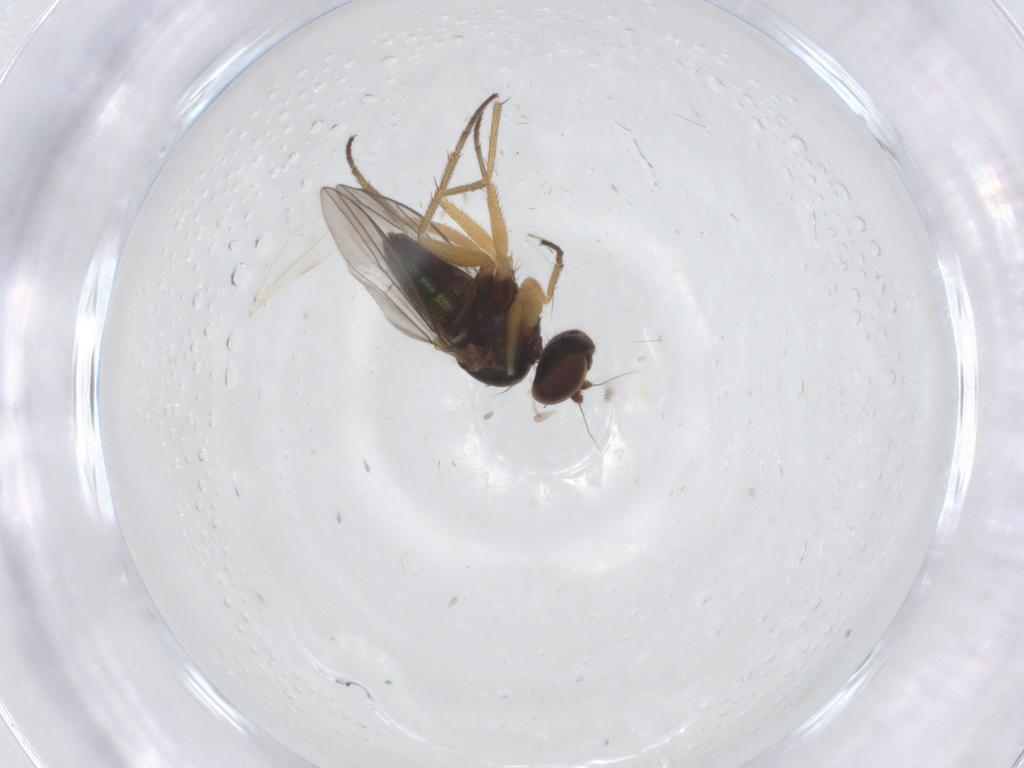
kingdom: Animalia
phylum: Arthropoda
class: Insecta
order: Diptera
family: Cecidomyiidae
